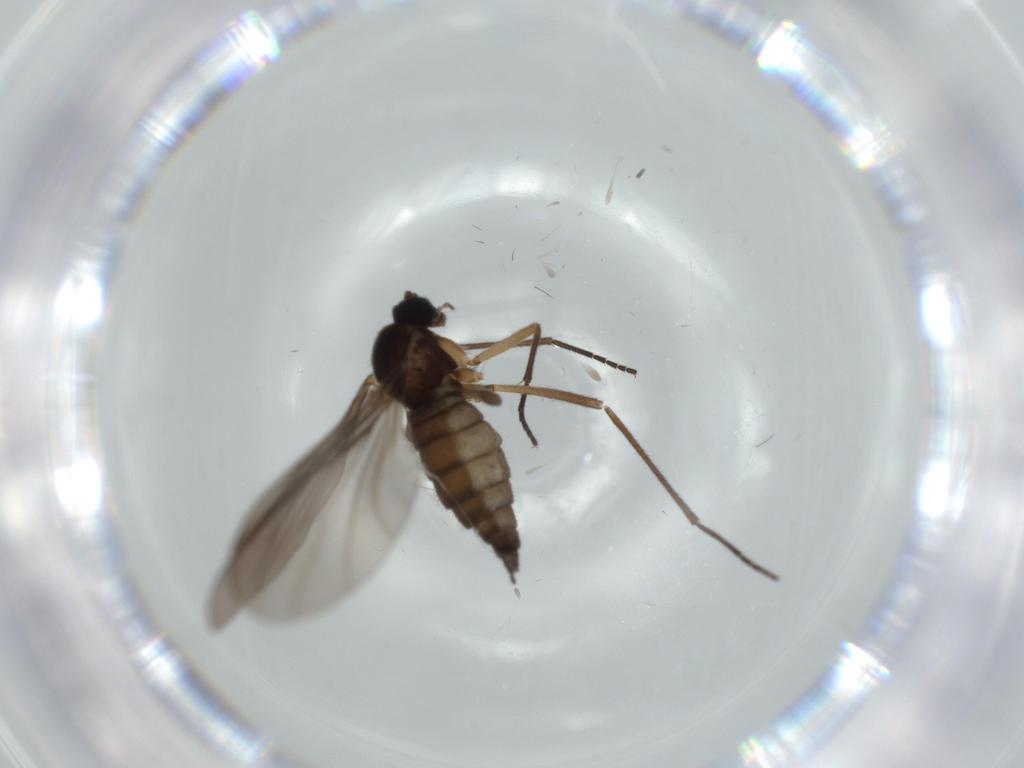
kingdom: Animalia
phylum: Arthropoda
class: Insecta
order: Diptera
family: Sciaridae
